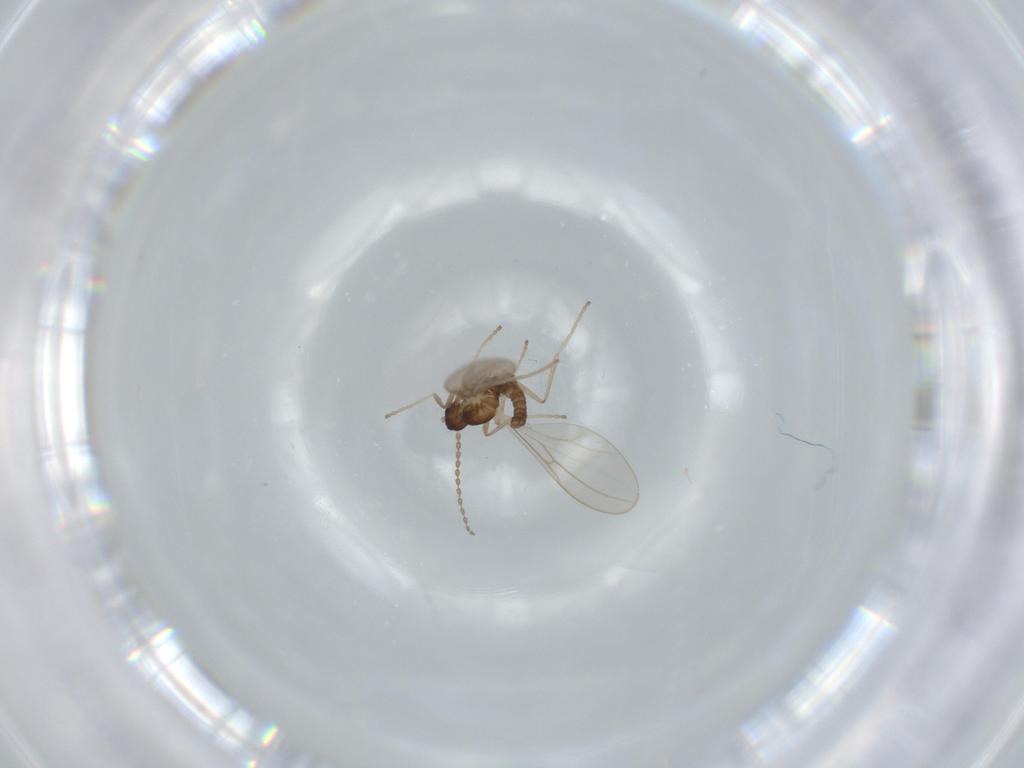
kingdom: Animalia
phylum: Arthropoda
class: Insecta
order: Diptera
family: Cecidomyiidae
